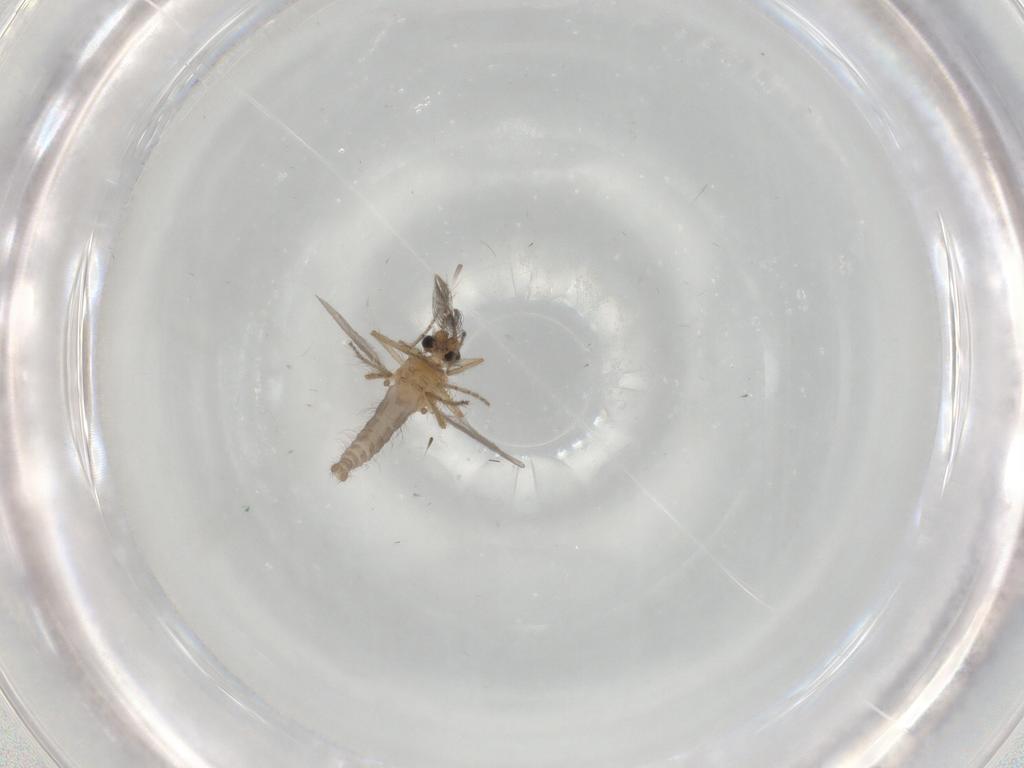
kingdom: Animalia
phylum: Arthropoda
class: Insecta
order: Diptera
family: Ceratopogonidae
